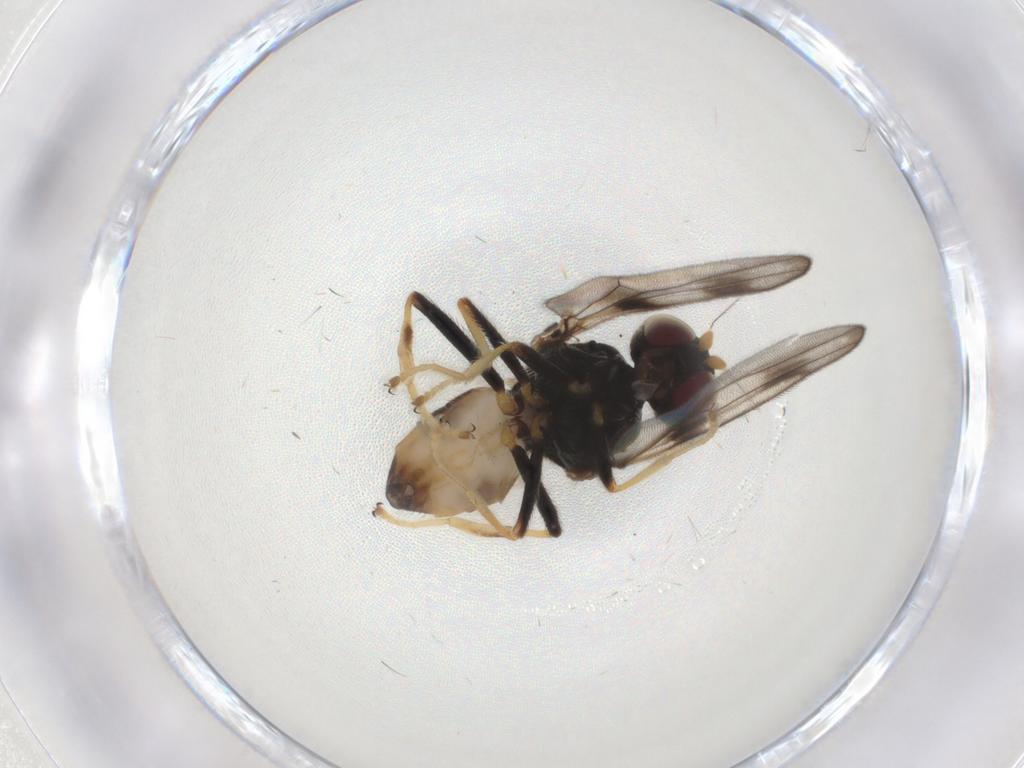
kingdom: Animalia
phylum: Arthropoda
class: Insecta
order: Diptera
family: Chloropidae
